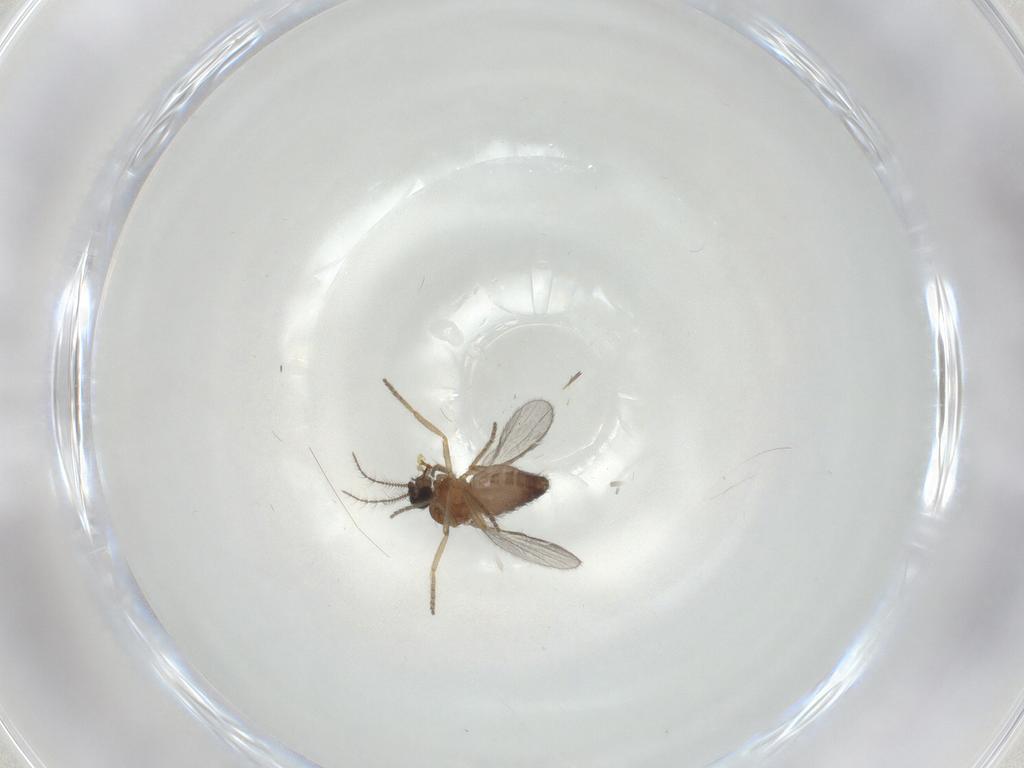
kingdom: Animalia
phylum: Arthropoda
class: Insecta
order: Diptera
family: Ceratopogonidae
